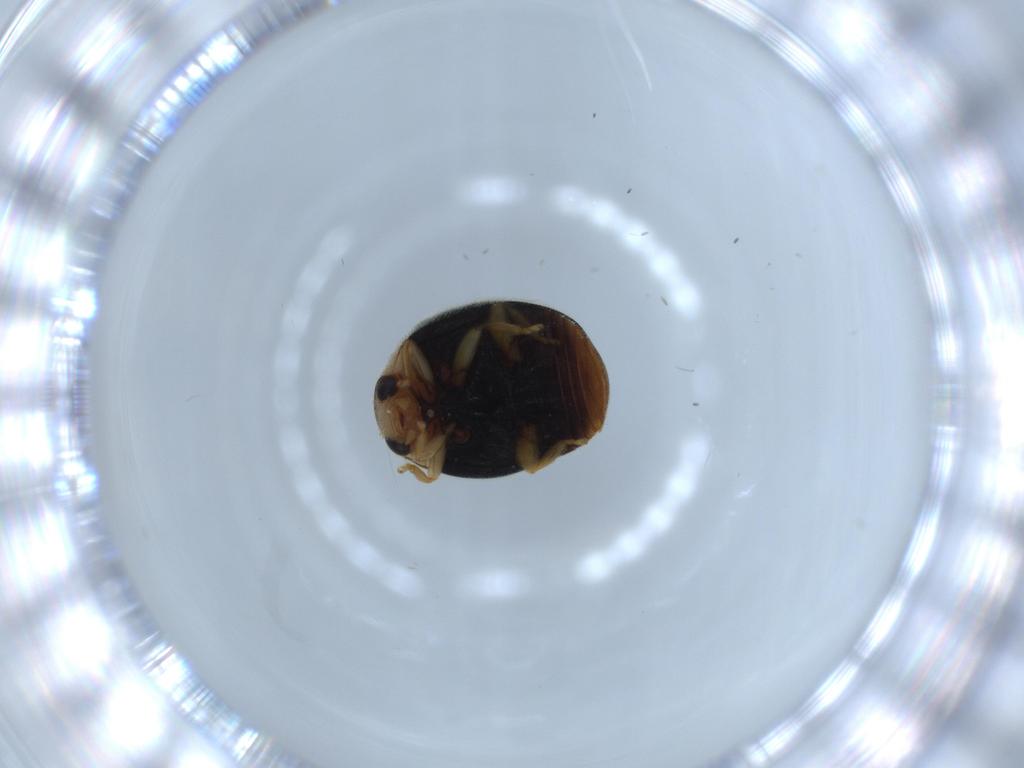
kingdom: Animalia
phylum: Arthropoda
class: Insecta
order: Coleoptera
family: Coccinellidae
